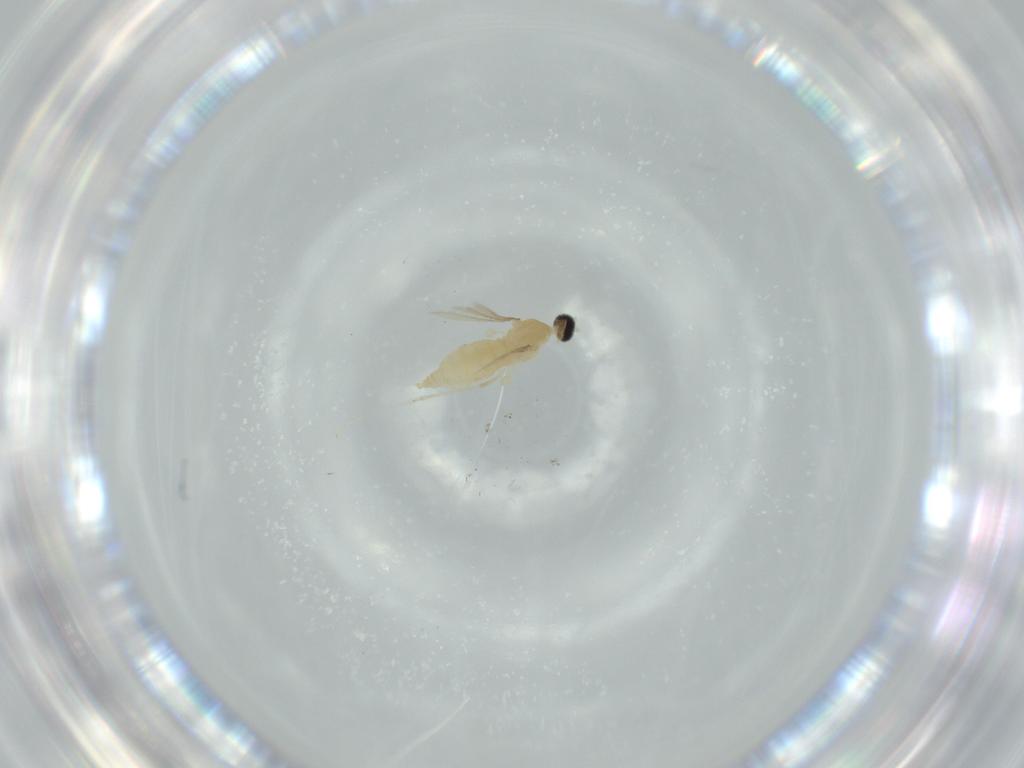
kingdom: Animalia
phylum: Arthropoda
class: Insecta
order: Diptera
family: Cecidomyiidae
